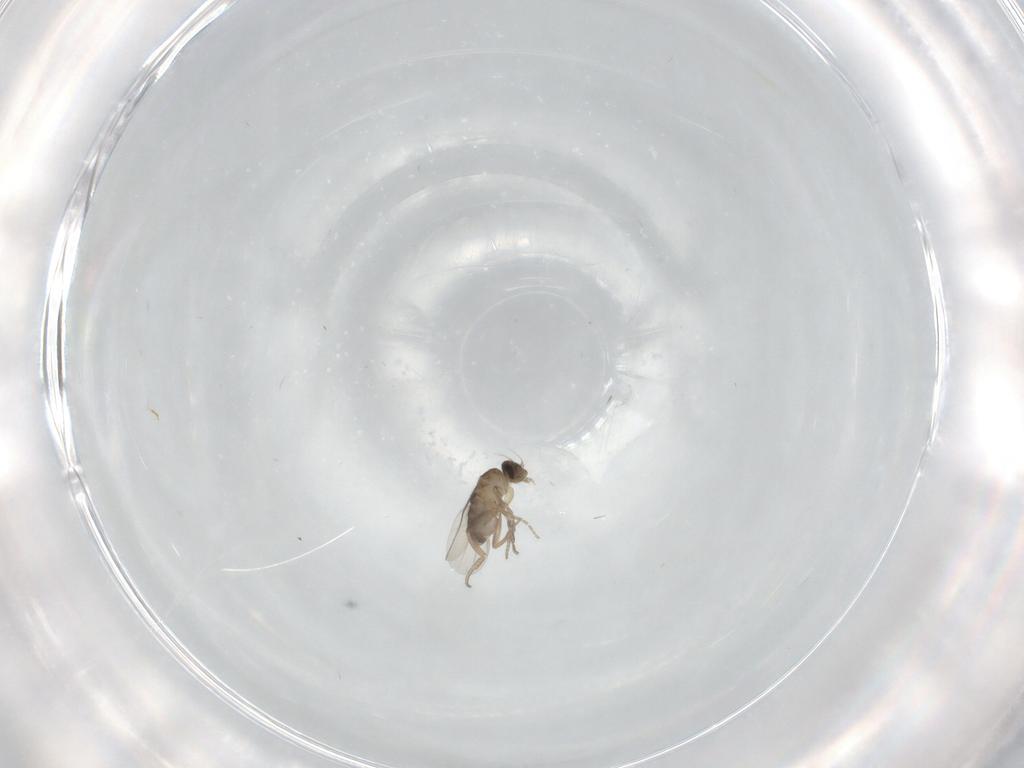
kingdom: Animalia
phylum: Arthropoda
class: Insecta
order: Diptera
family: Phoridae
